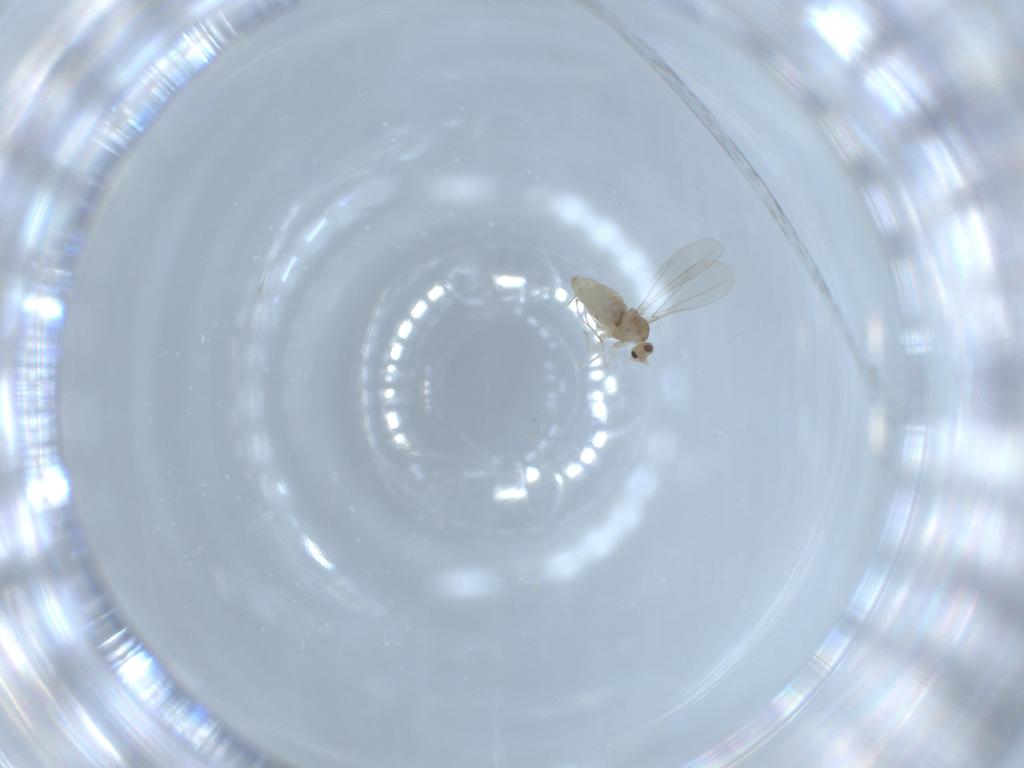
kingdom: Animalia
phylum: Arthropoda
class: Insecta
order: Diptera
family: Cecidomyiidae
